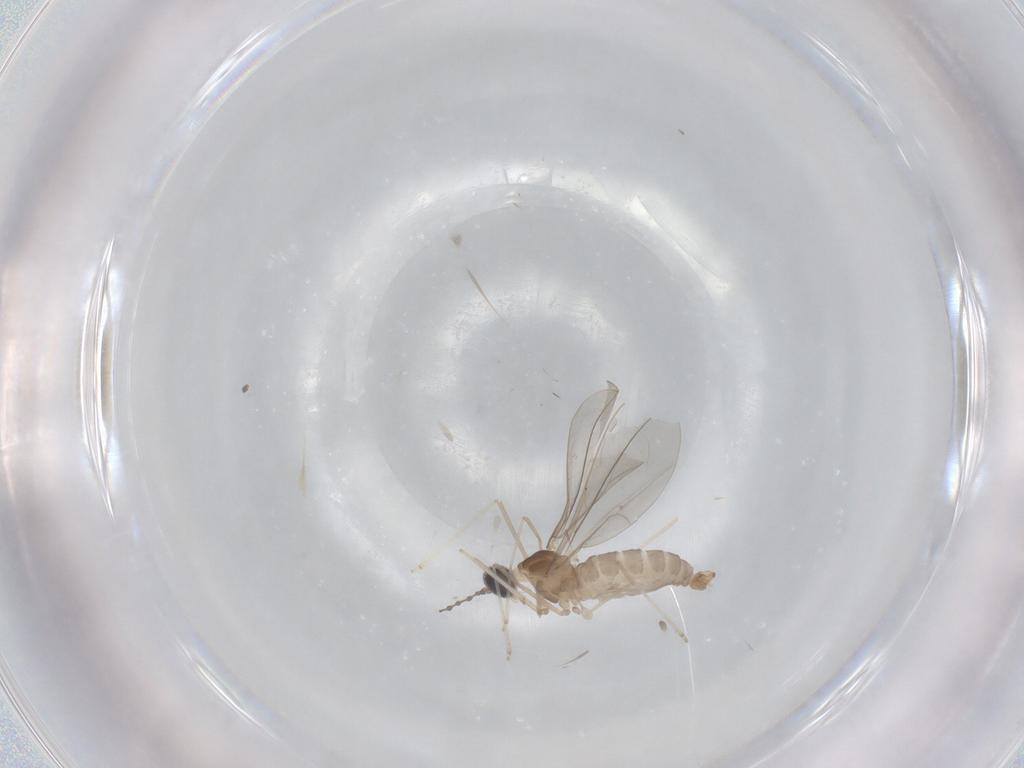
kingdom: Animalia
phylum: Arthropoda
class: Insecta
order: Diptera
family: Cecidomyiidae
